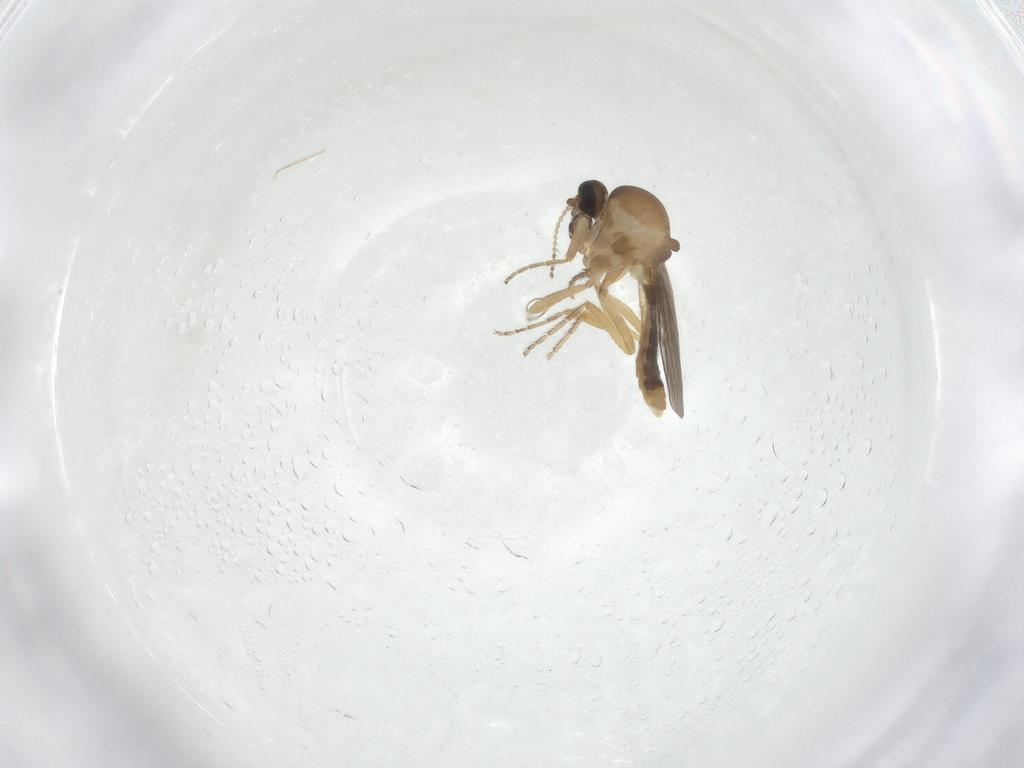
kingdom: Animalia
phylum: Arthropoda
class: Insecta
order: Diptera
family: Ceratopogonidae
